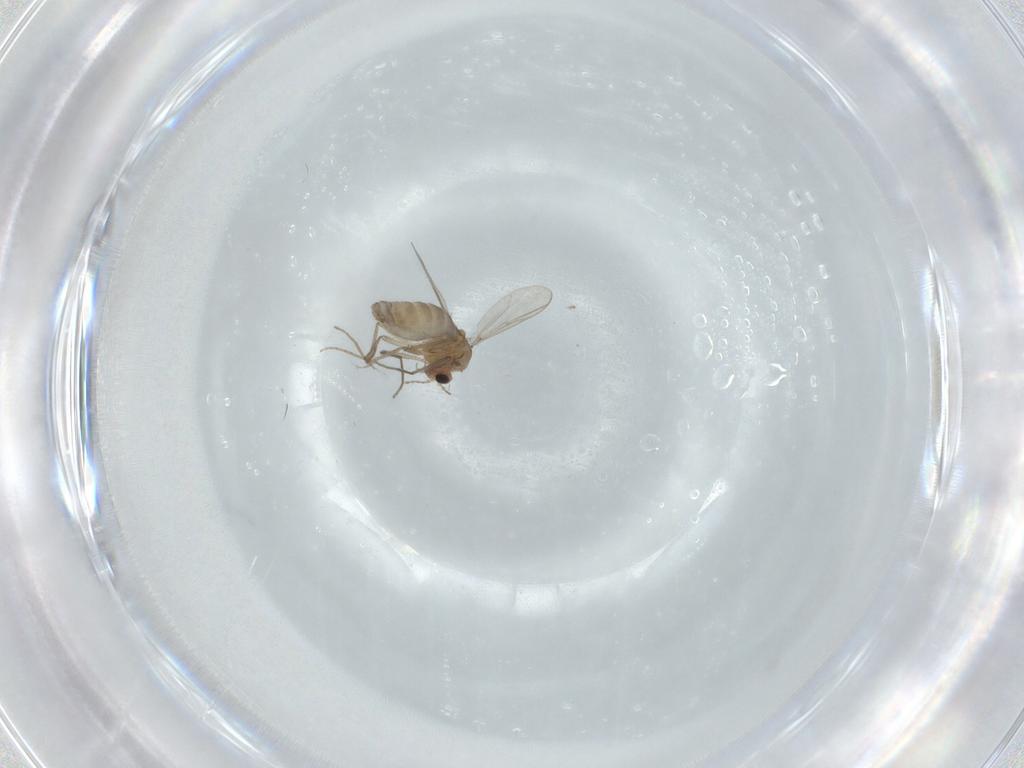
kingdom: Animalia
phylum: Arthropoda
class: Insecta
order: Diptera
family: Chironomidae
